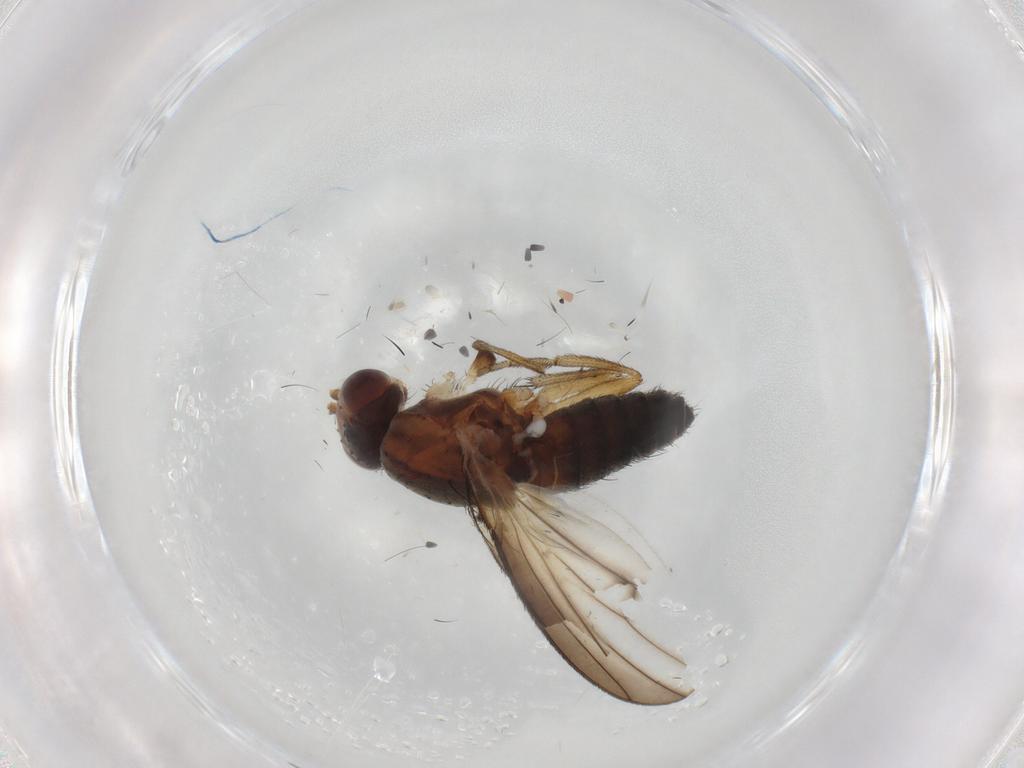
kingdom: Animalia
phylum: Arthropoda
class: Insecta
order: Diptera
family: Heleomyzidae
